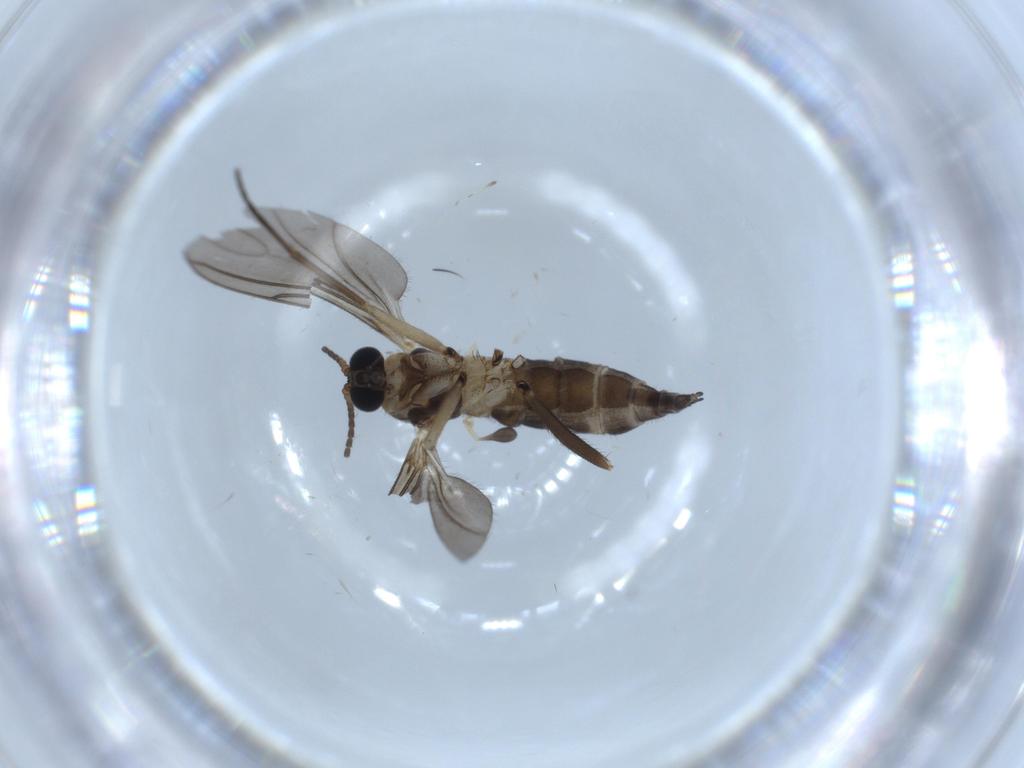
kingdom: Animalia
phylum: Arthropoda
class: Insecta
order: Diptera
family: Sciaridae
